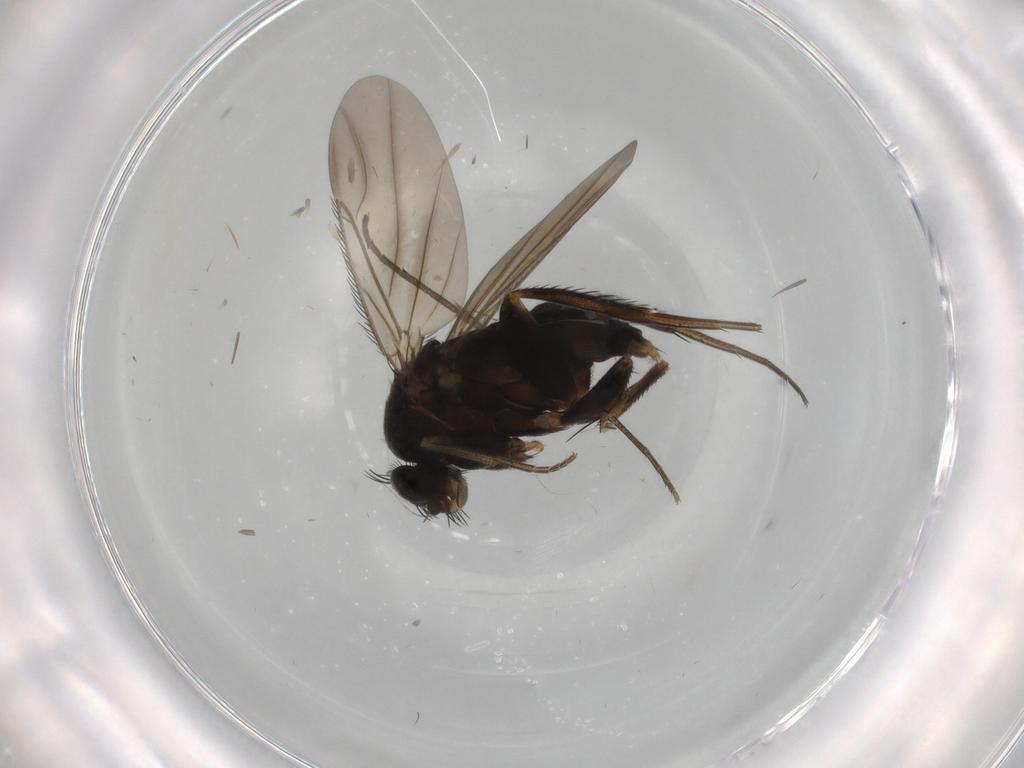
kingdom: Animalia
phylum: Arthropoda
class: Insecta
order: Diptera
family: Phoridae
